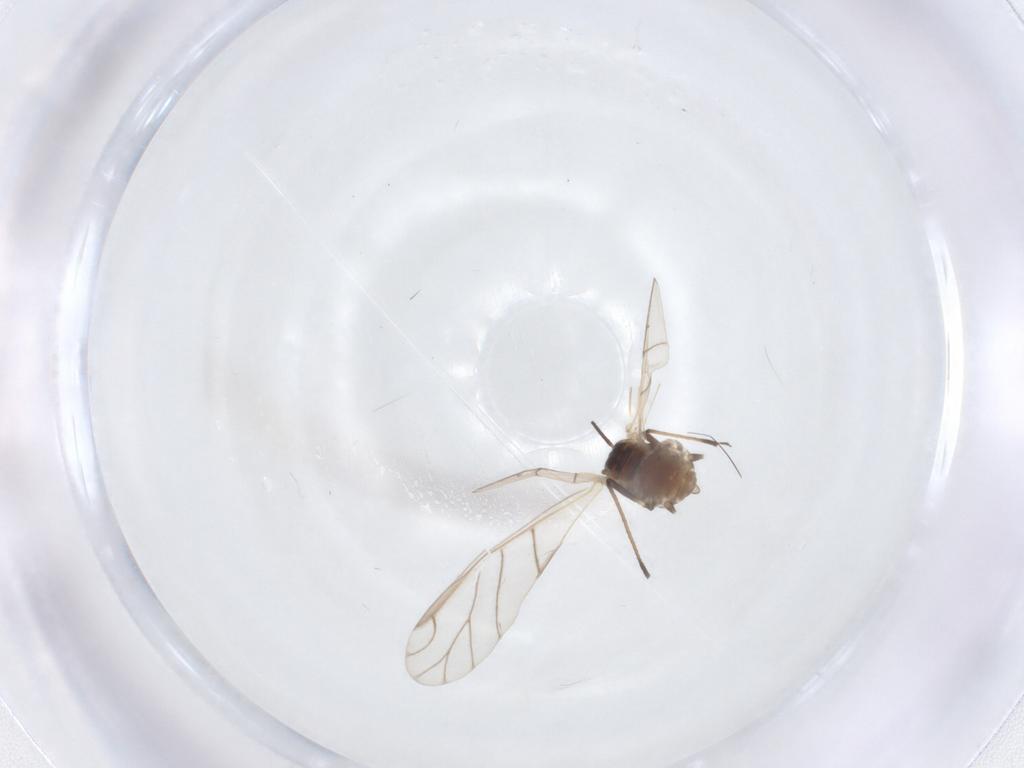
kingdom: Animalia
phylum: Arthropoda
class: Insecta
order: Hemiptera
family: Aphididae
